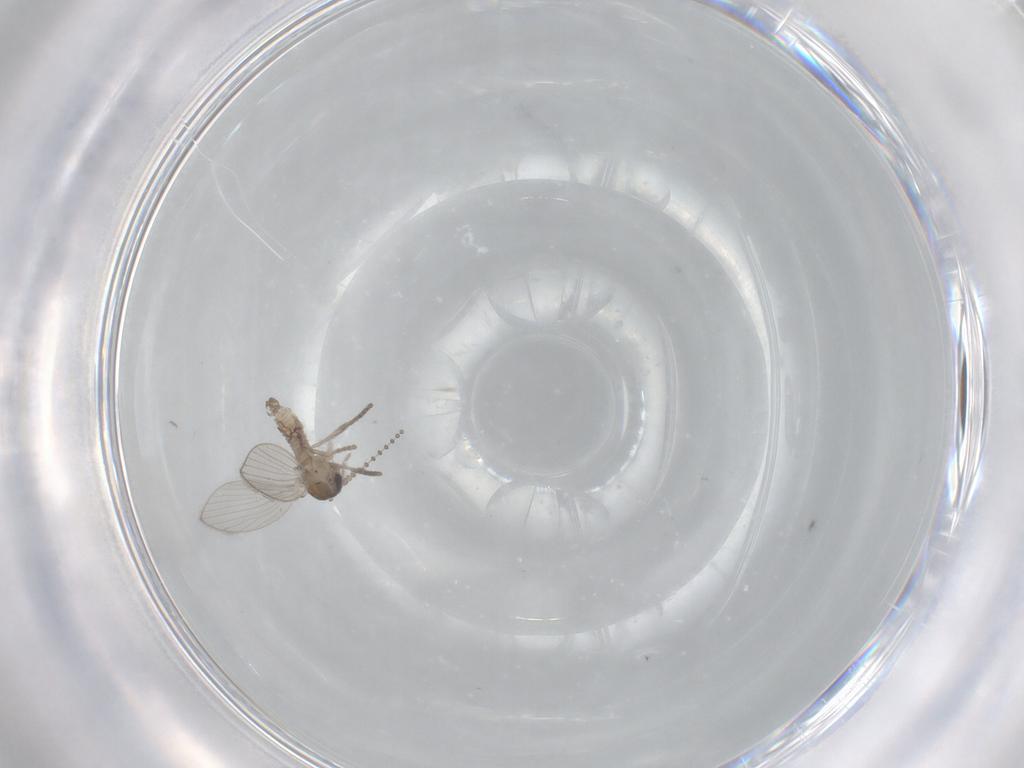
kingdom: Animalia
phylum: Arthropoda
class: Insecta
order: Diptera
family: Psychodidae
